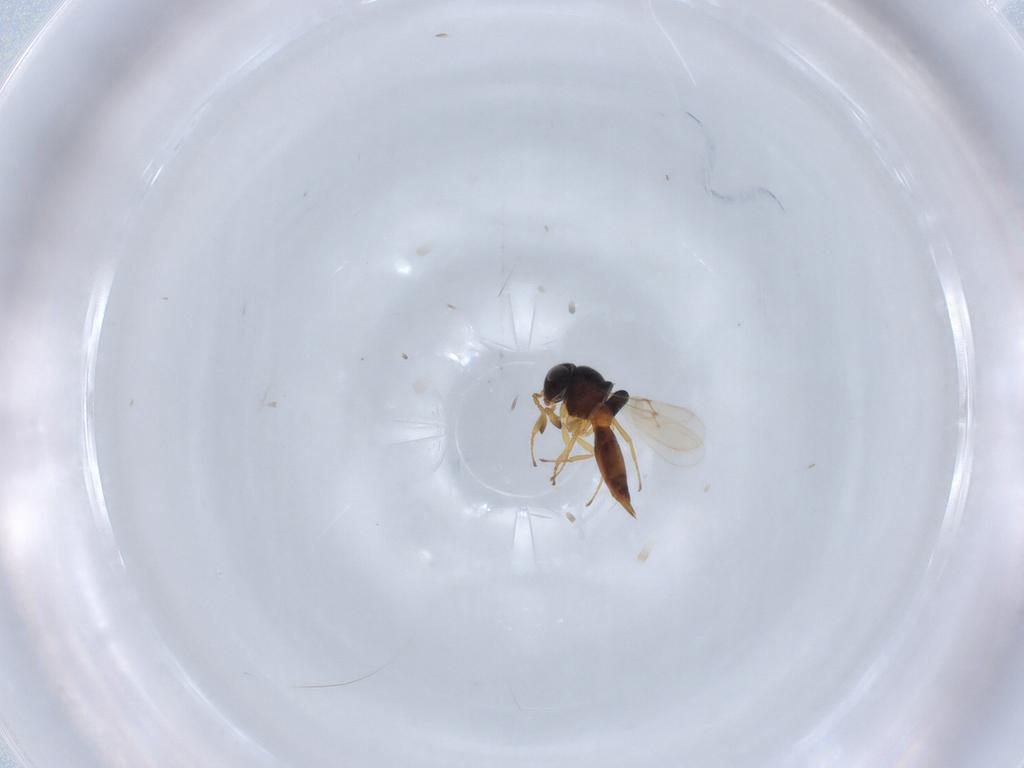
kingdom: Animalia
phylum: Arthropoda
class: Insecta
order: Hymenoptera
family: Scelionidae
